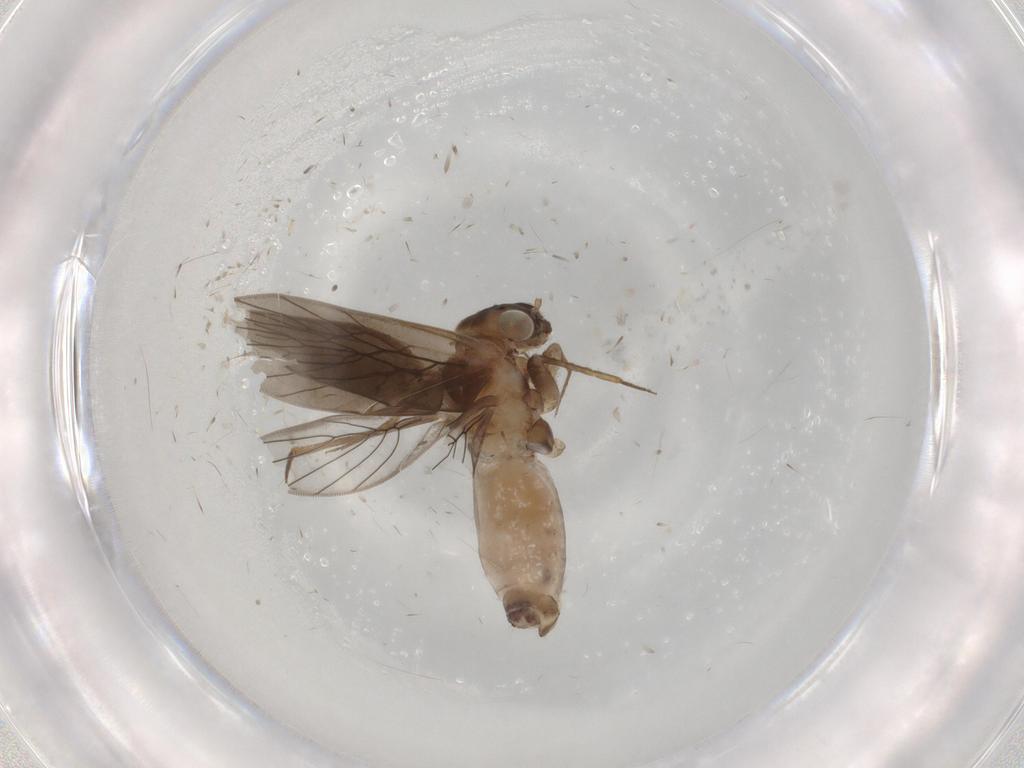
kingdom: Animalia
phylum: Arthropoda
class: Insecta
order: Psocodea
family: Lepidopsocidae
